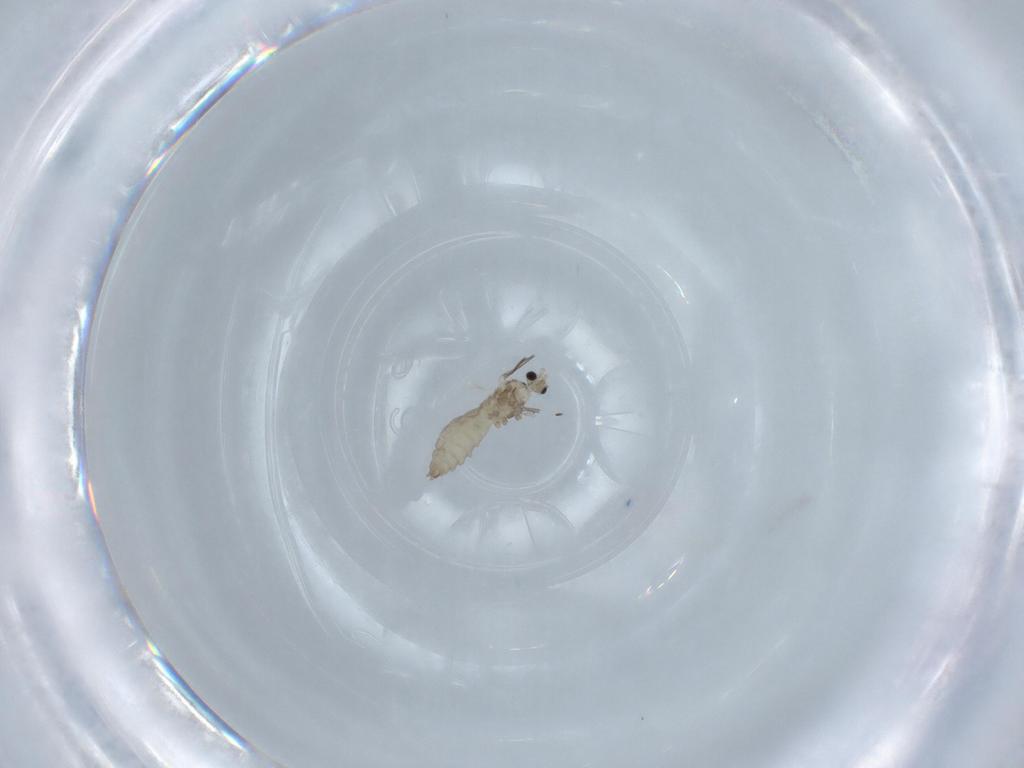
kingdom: Animalia
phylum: Arthropoda
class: Insecta
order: Diptera
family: Cecidomyiidae
